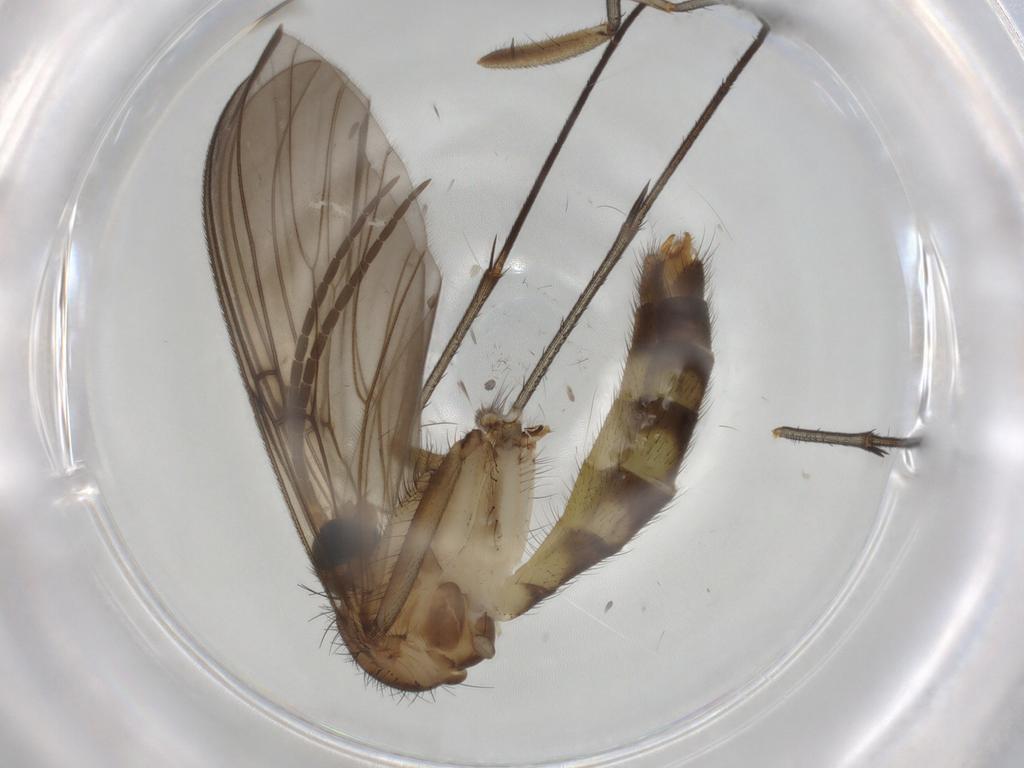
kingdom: Animalia
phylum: Arthropoda
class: Insecta
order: Diptera
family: Mycetophilidae
